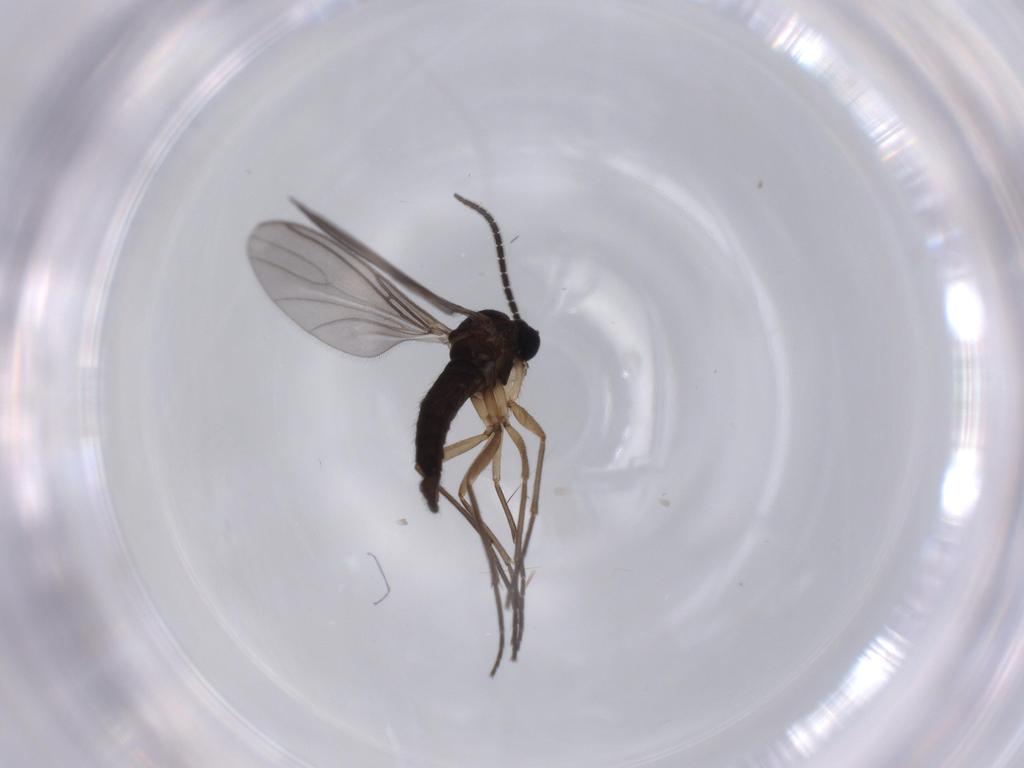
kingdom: Animalia
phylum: Arthropoda
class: Insecta
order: Diptera
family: Sciaridae
